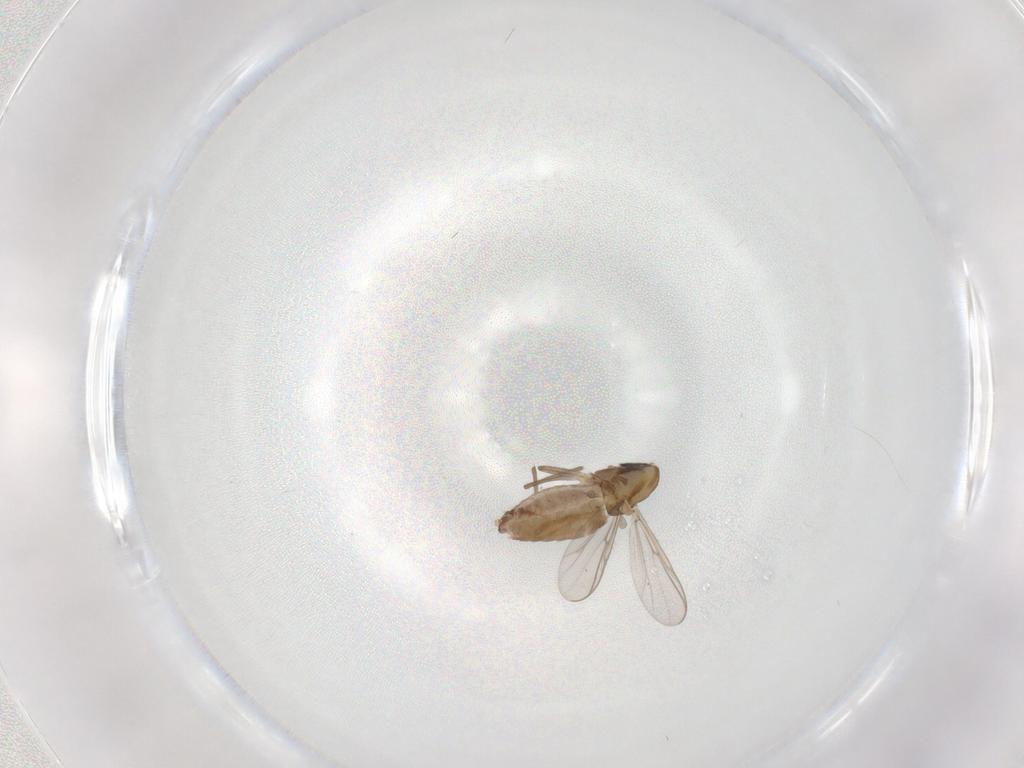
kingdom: Animalia
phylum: Arthropoda
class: Insecta
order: Diptera
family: Chironomidae
